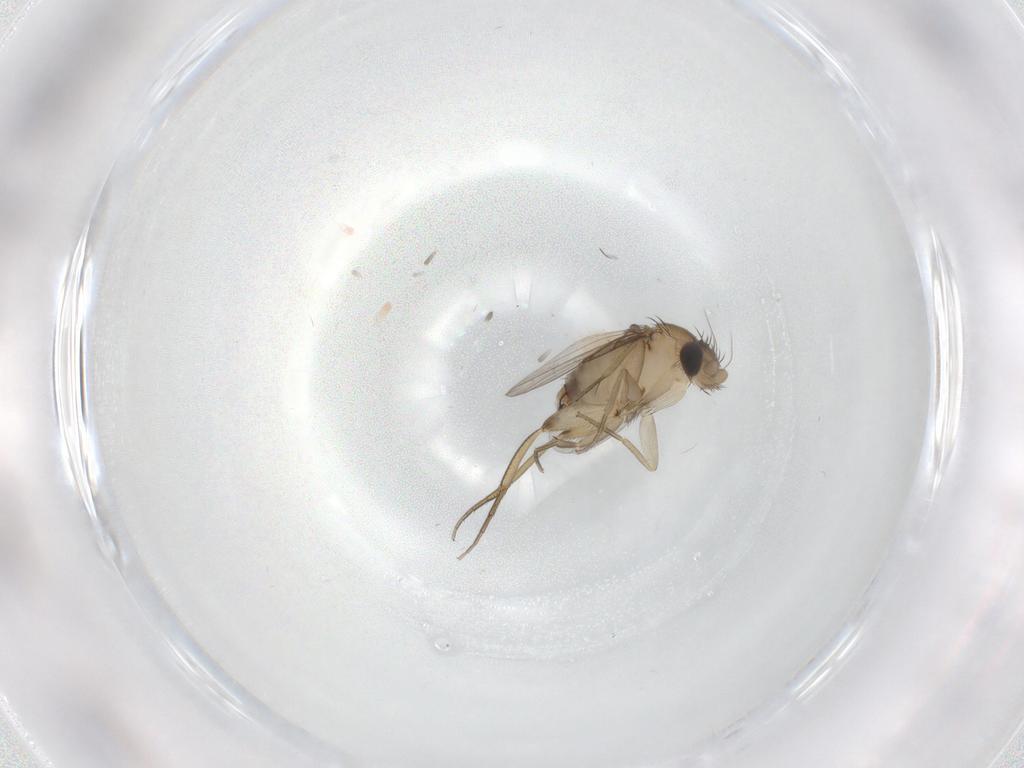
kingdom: Animalia
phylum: Arthropoda
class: Insecta
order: Diptera
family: Phoridae
